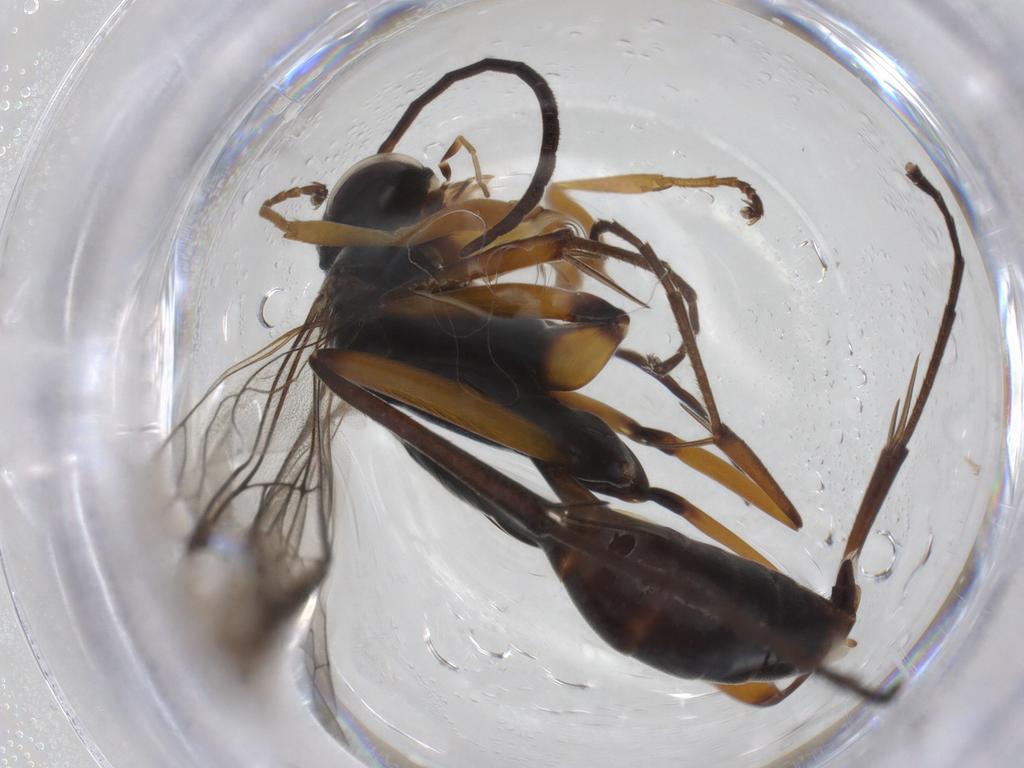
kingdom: Animalia
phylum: Arthropoda
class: Insecta
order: Hymenoptera
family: Pompilidae
